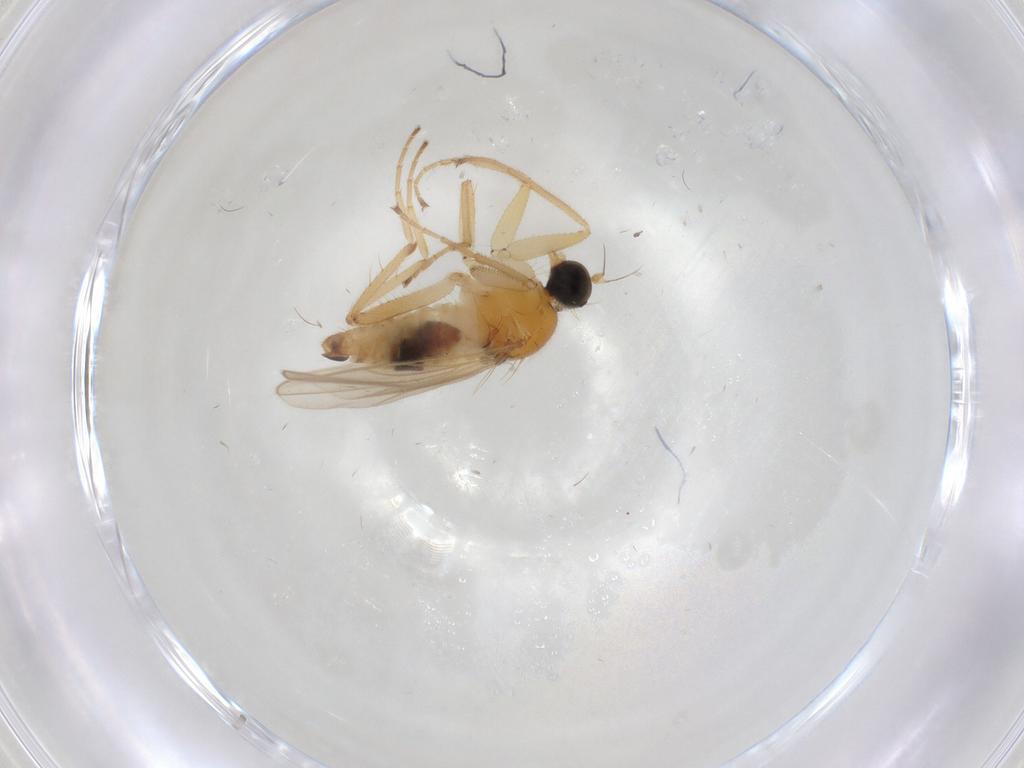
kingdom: Animalia
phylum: Arthropoda
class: Insecta
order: Diptera
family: Hybotidae
